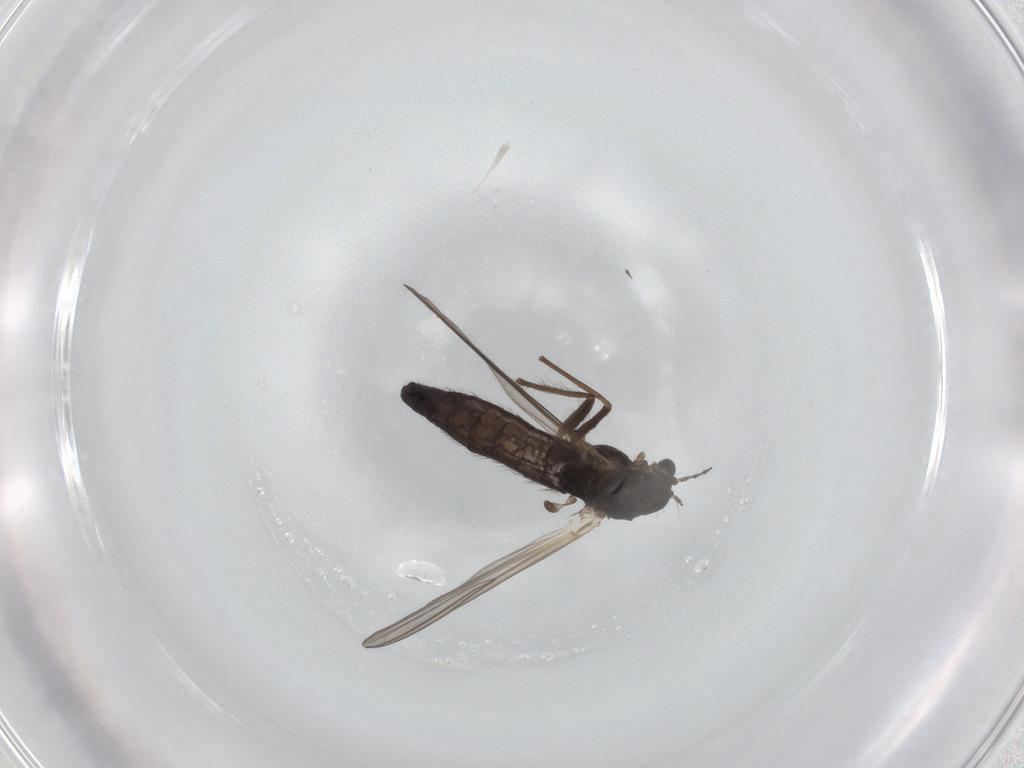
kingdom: Animalia
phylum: Arthropoda
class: Insecta
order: Diptera
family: Chironomidae
